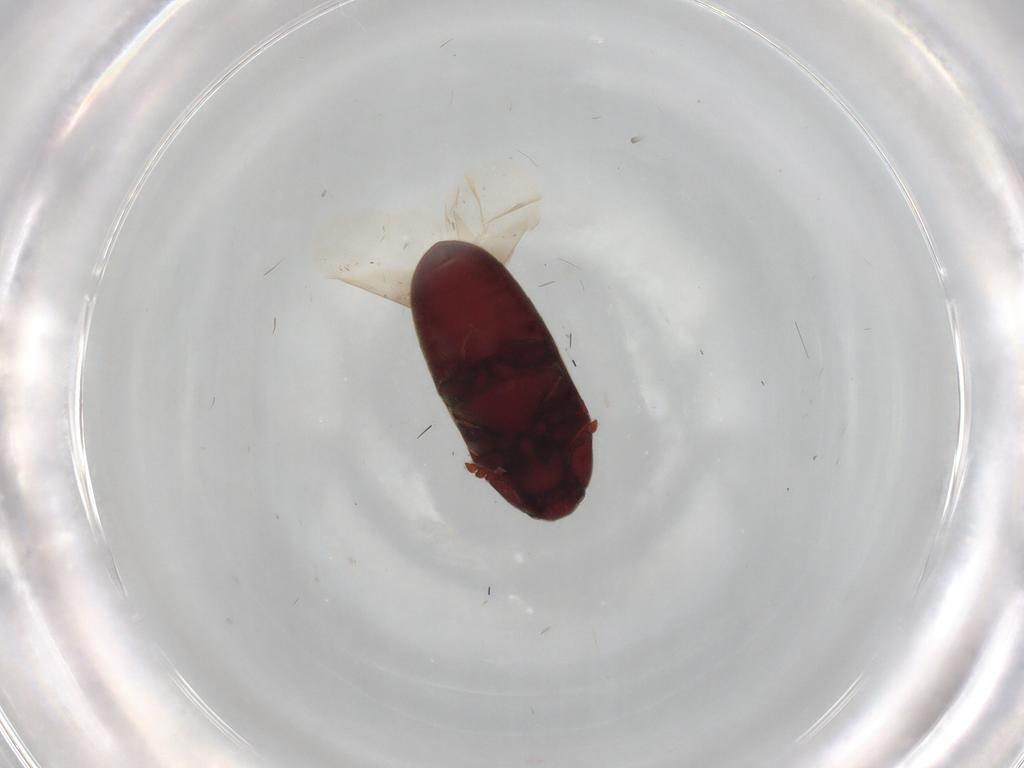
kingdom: Animalia
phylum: Arthropoda
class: Insecta
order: Coleoptera
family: Throscidae
